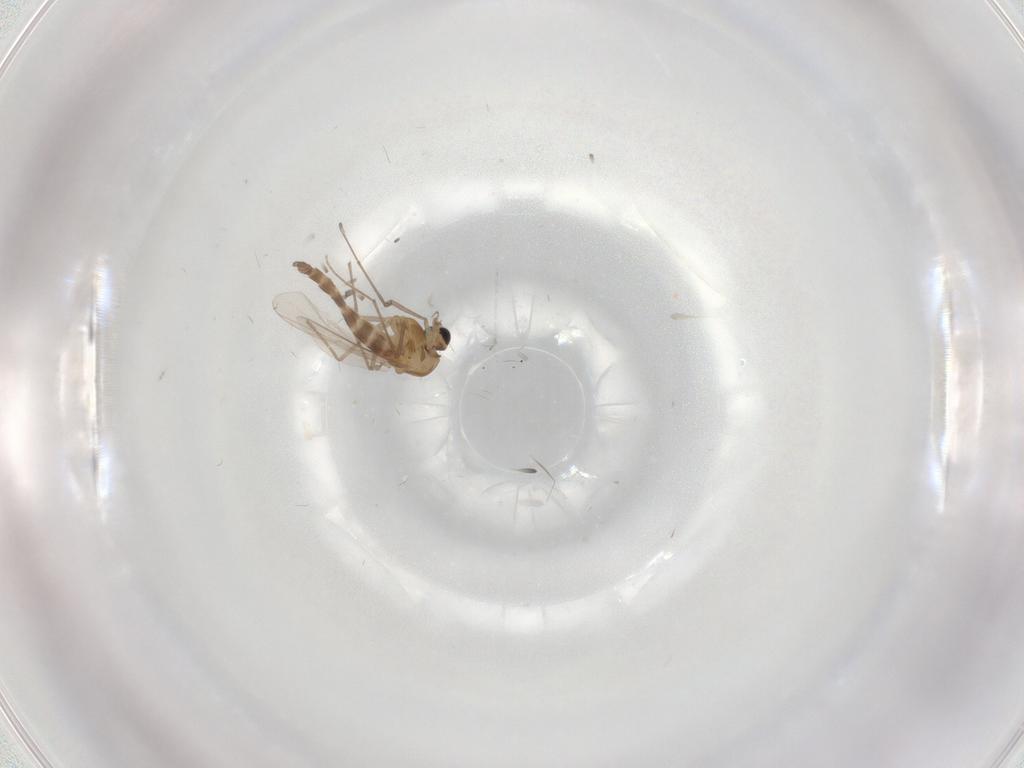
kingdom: Animalia
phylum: Arthropoda
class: Insecta
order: Diptera
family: Chironomidae
